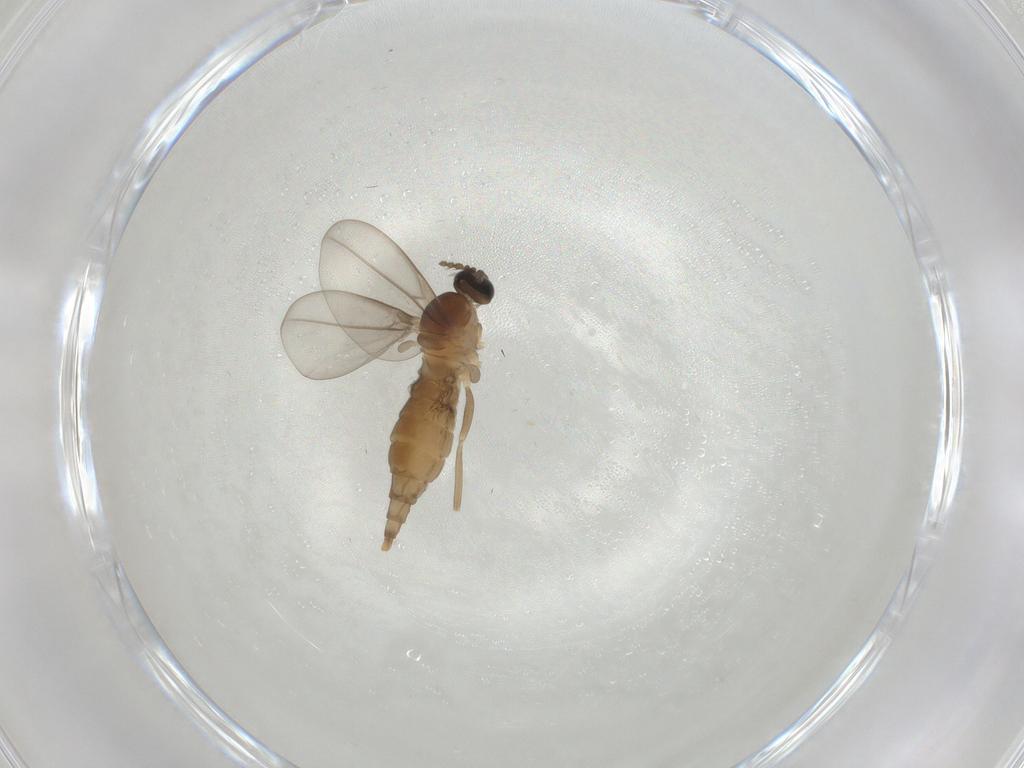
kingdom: Animalia
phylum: Arthropoda
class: Insecta
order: Diptera
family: Cecidomyiidae
